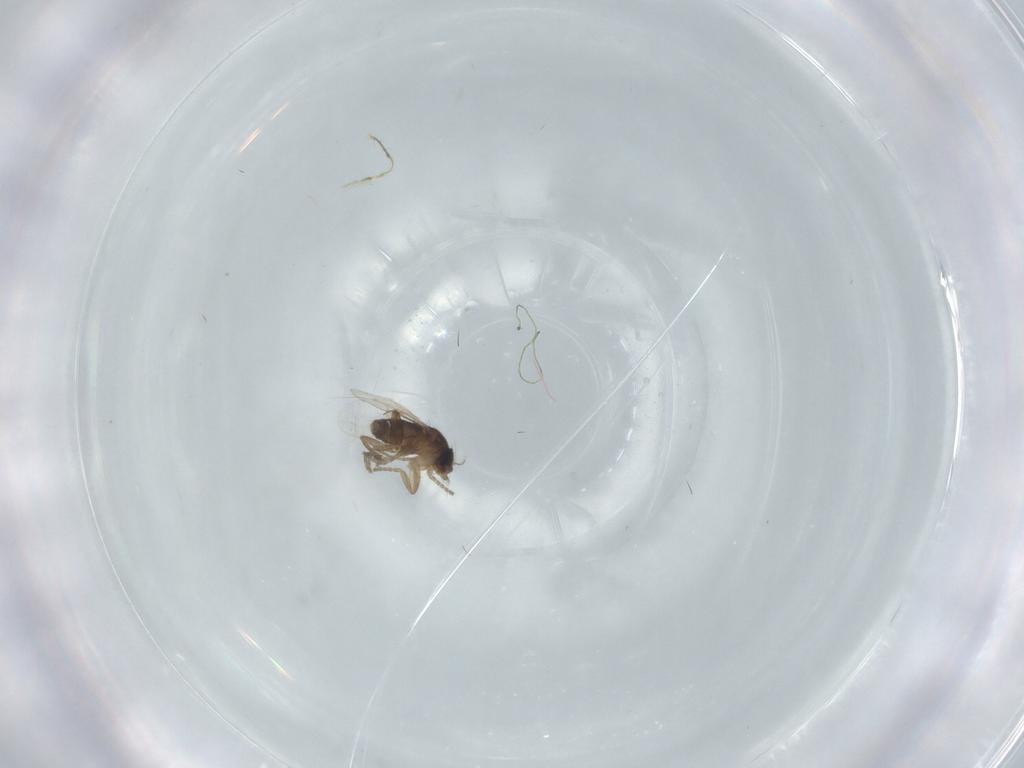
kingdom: Animalia
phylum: Arthropoda
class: Insecta
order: Diptera
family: Chironomidae
